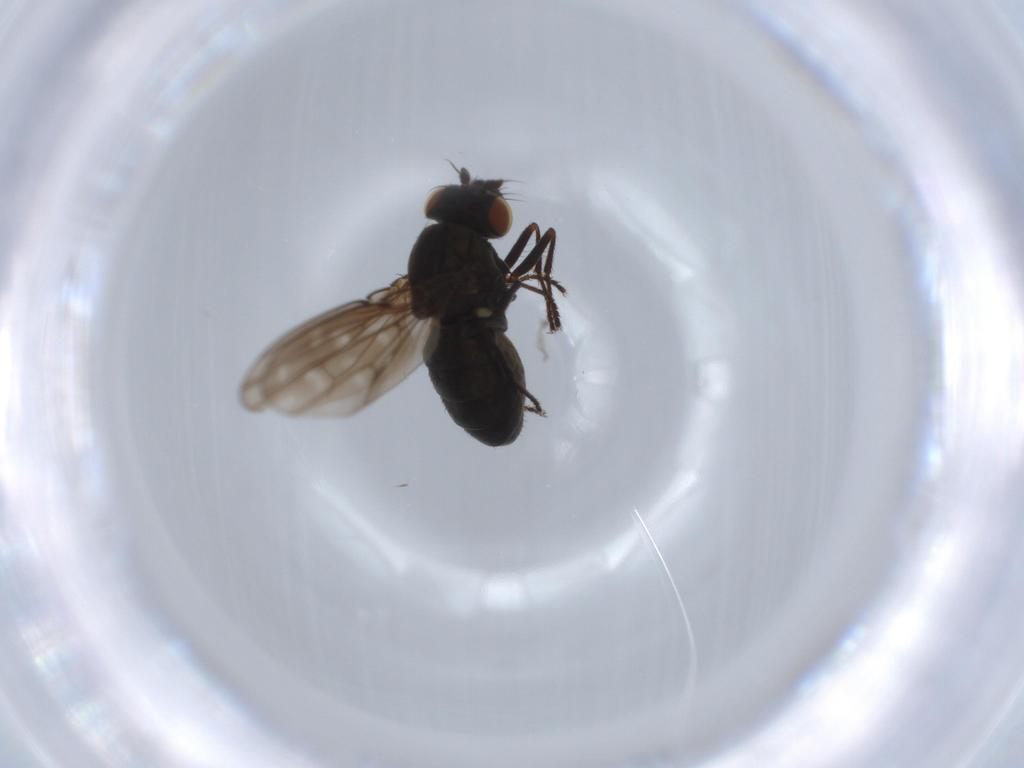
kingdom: Animalia
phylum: Arthropoda
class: Insecta
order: Diptera
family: Ephydridae
